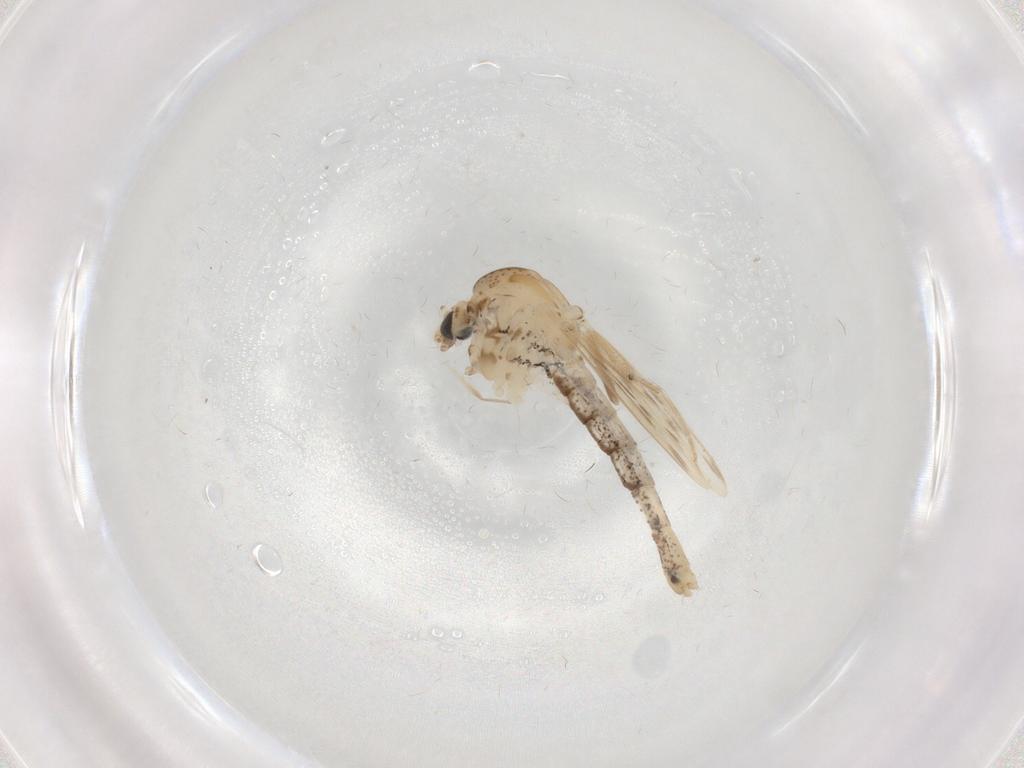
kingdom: Animalia
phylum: Arthropoda
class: Insecta
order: Diptera
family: Chaoboridae
